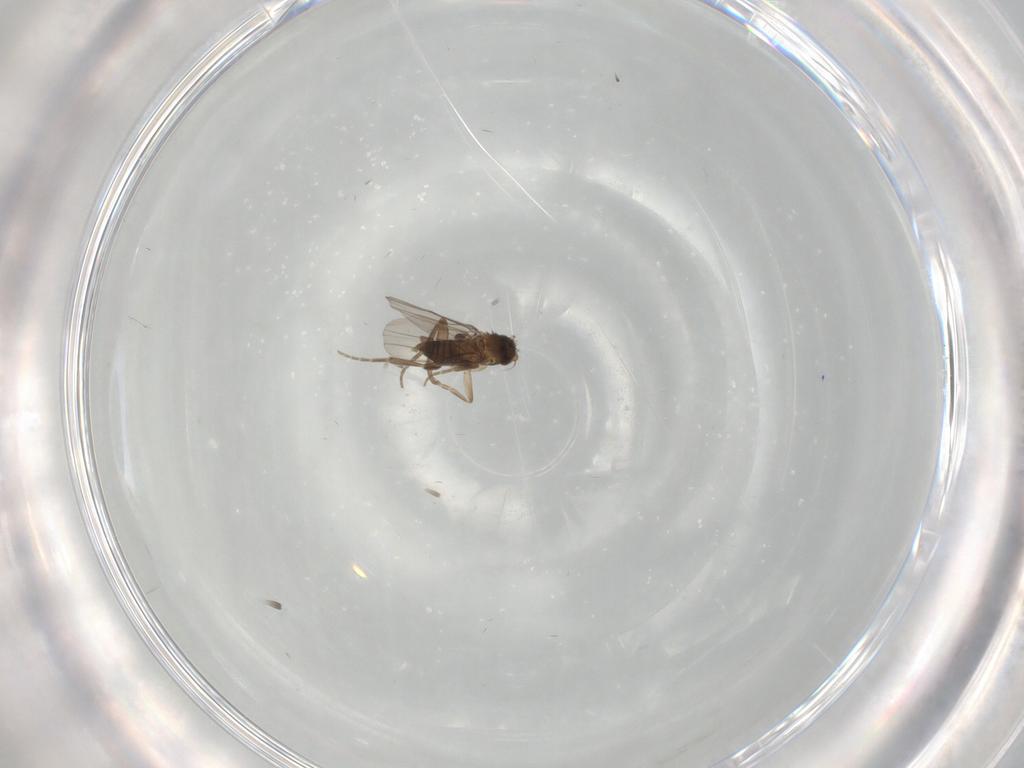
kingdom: Animalia
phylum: Arthropoda
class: Insecta
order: Diptera
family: Phoridae
